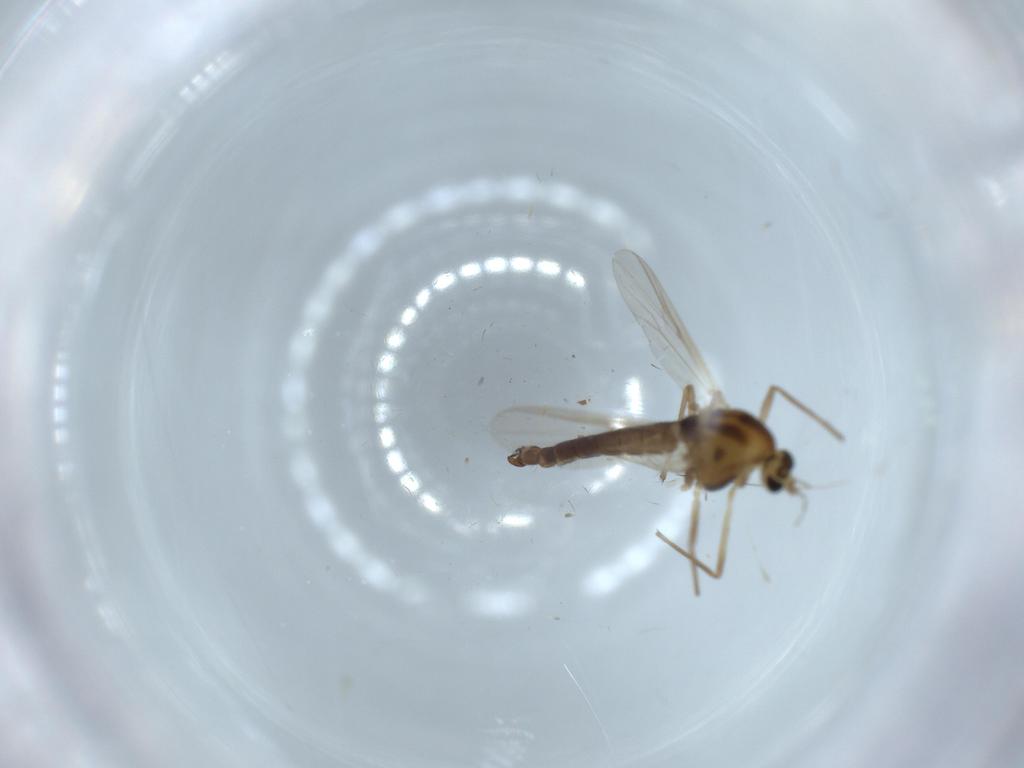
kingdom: Animalia
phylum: Arthropoda
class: Insecta
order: Diptera
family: Chironomidae
